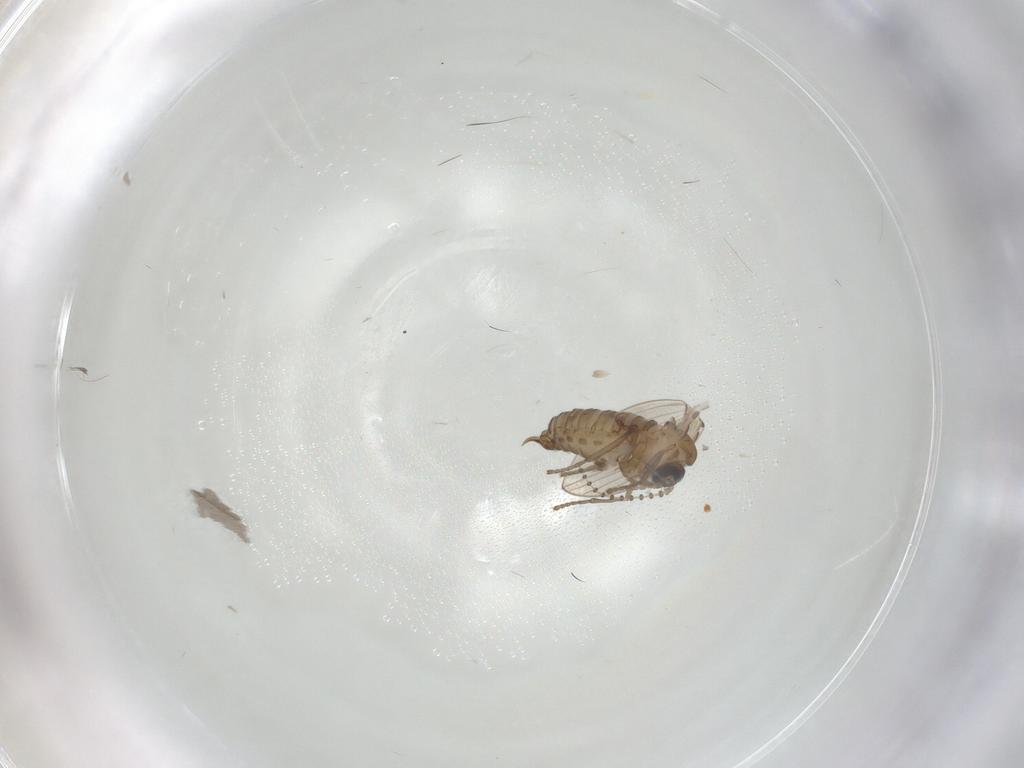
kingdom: Animalia
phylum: Arthropoda
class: Insecta
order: Diptera
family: Psychodidae
